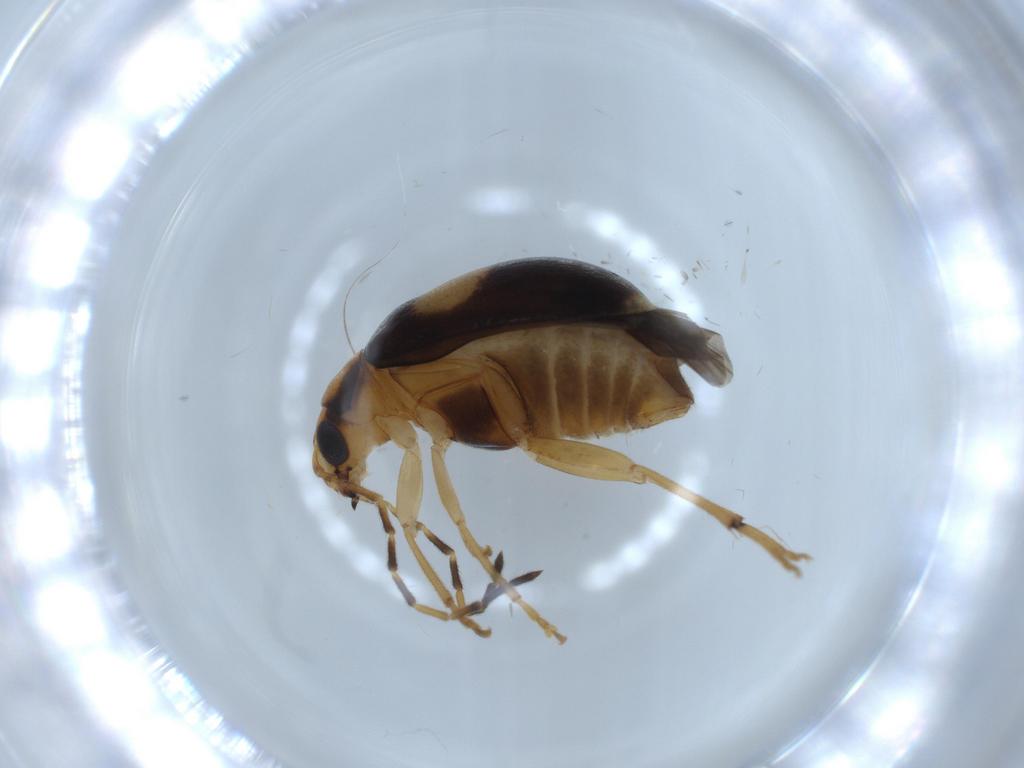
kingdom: Animalia
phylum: Arthropoda
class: Insecta
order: Coleoptera
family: Chrysomelidae
